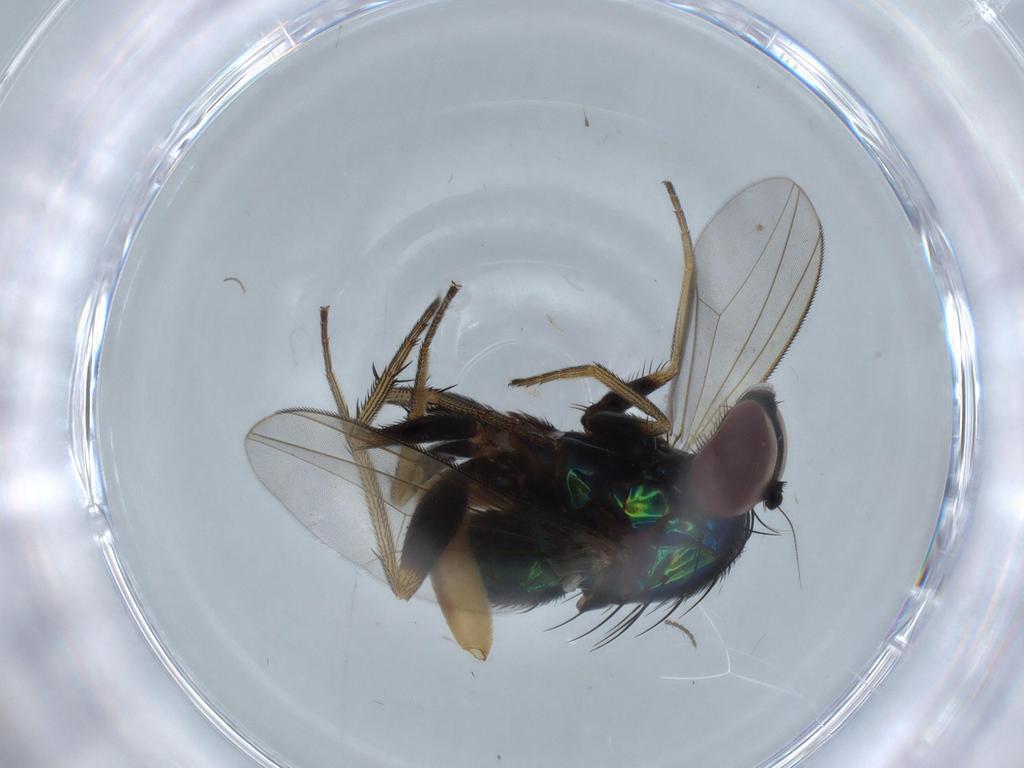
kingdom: Animalia
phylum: Arthropoda
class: Insecta
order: Diptera
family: Dolichopodidae
